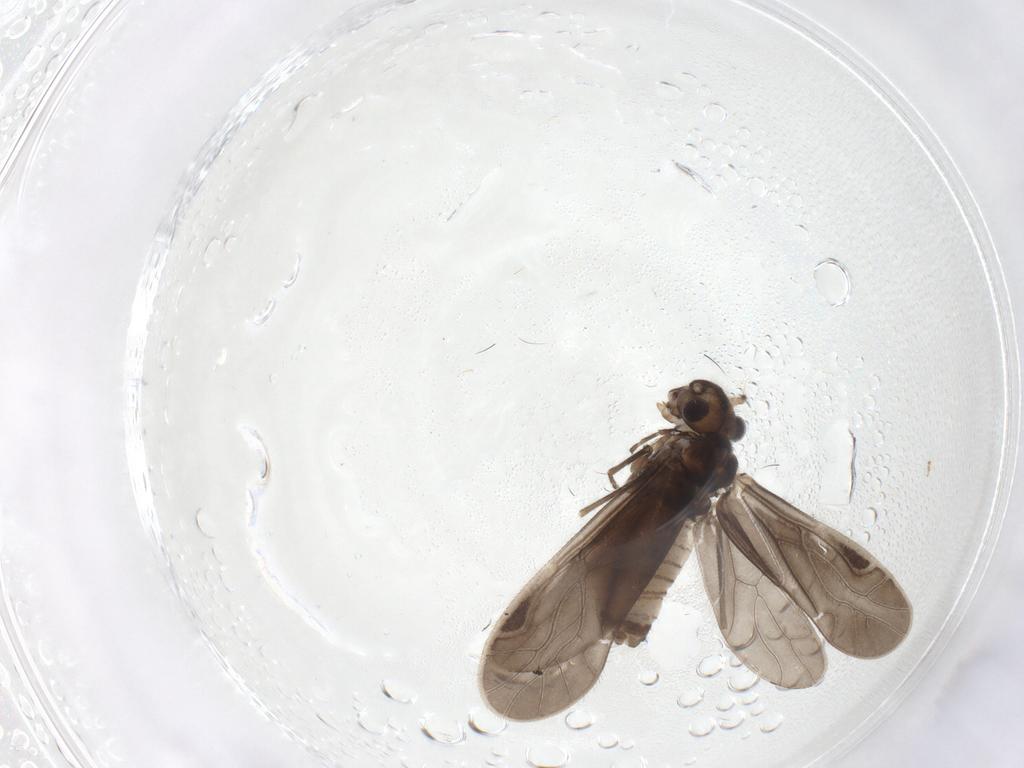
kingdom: Animalia
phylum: Arthropoda
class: Insecta
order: Psocodea
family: Caeciliusidae
